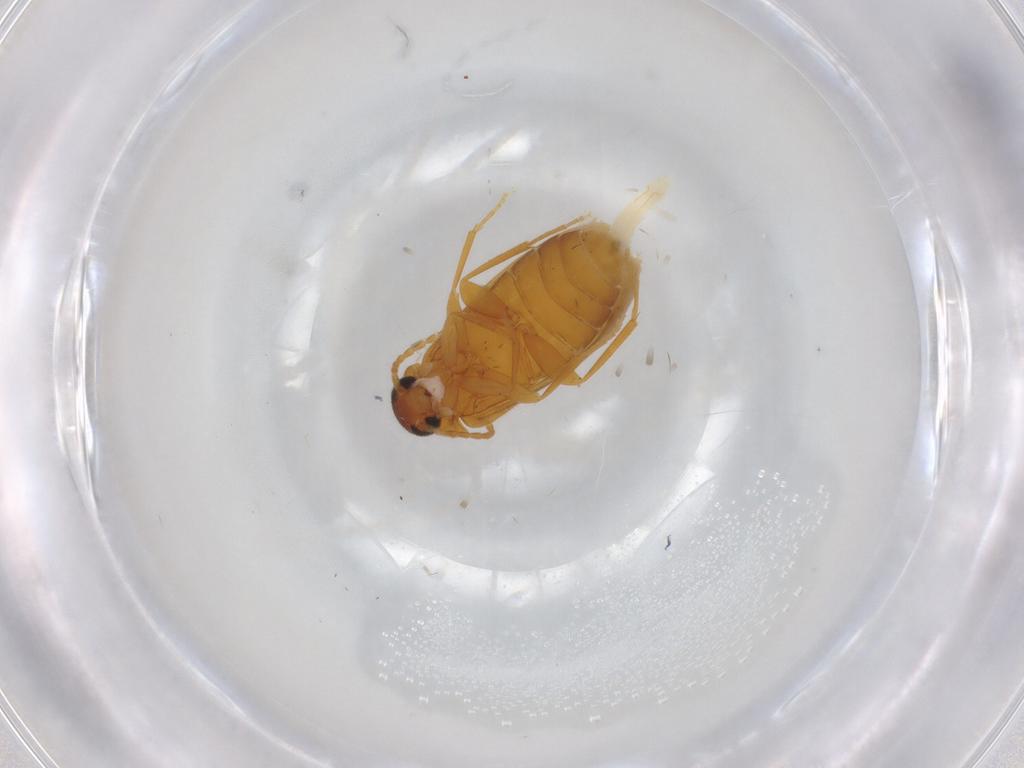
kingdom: Animalia
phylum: Arthropoda
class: Insecta
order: Coleoptera
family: Scraptiidae
